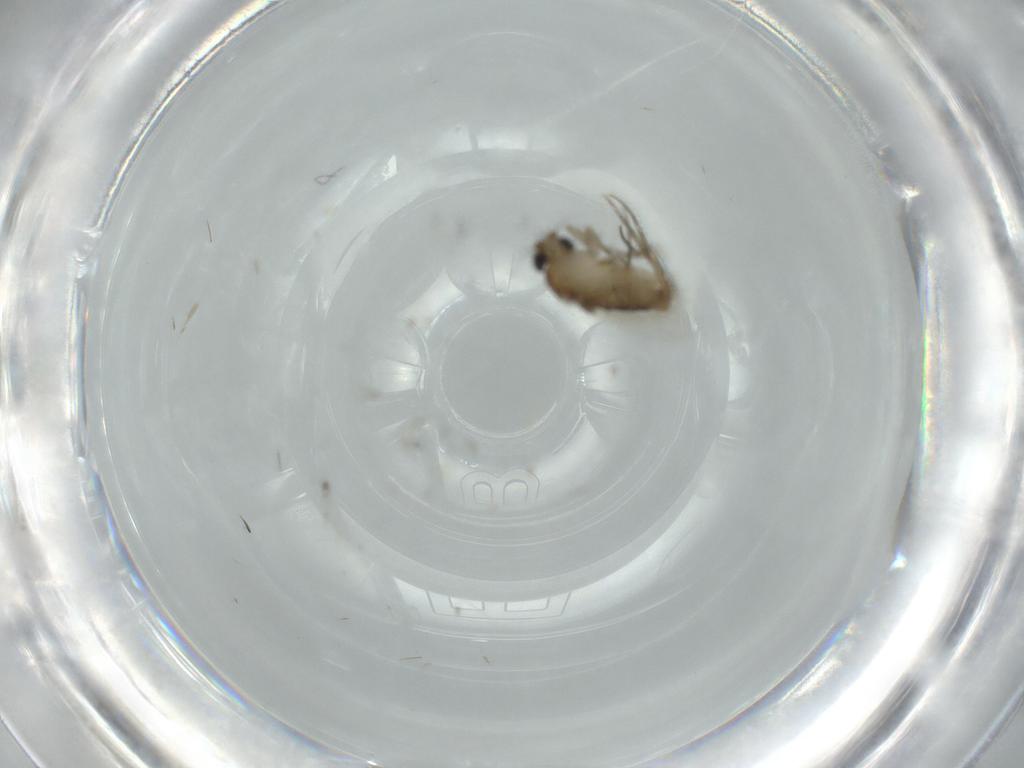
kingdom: Animalia
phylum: Arthropoda
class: Insecta
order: Diptera
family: Phoridae
